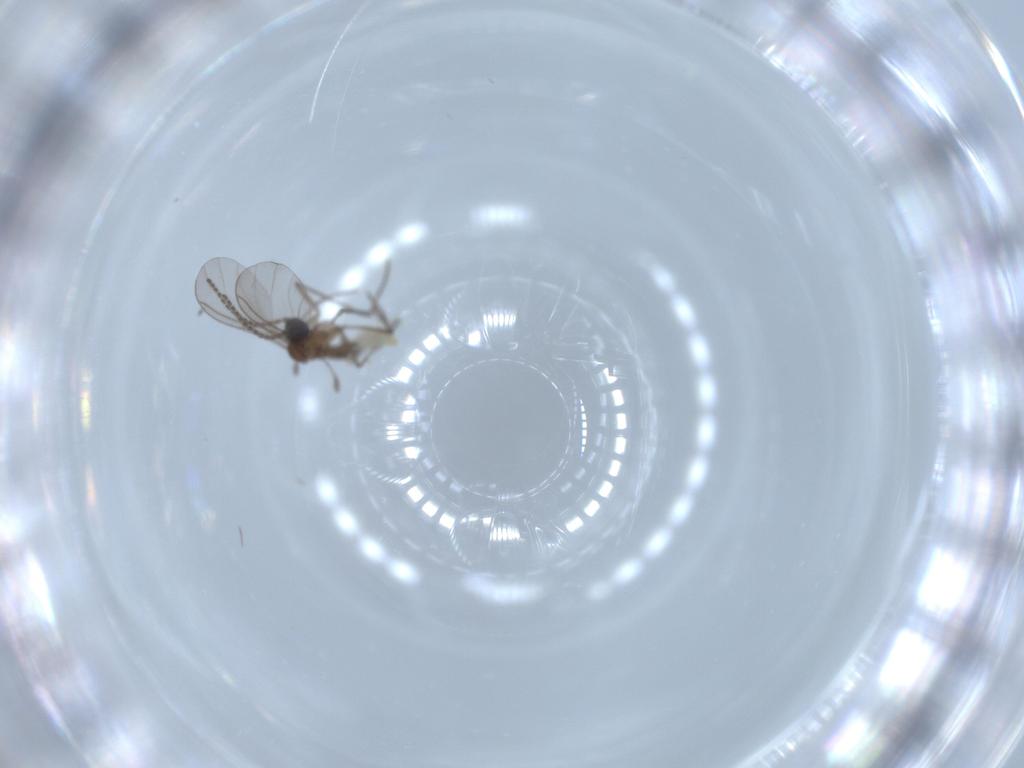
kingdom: Animalia
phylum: Arthropoda
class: Insecta
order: Diptera
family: Sciaridae
